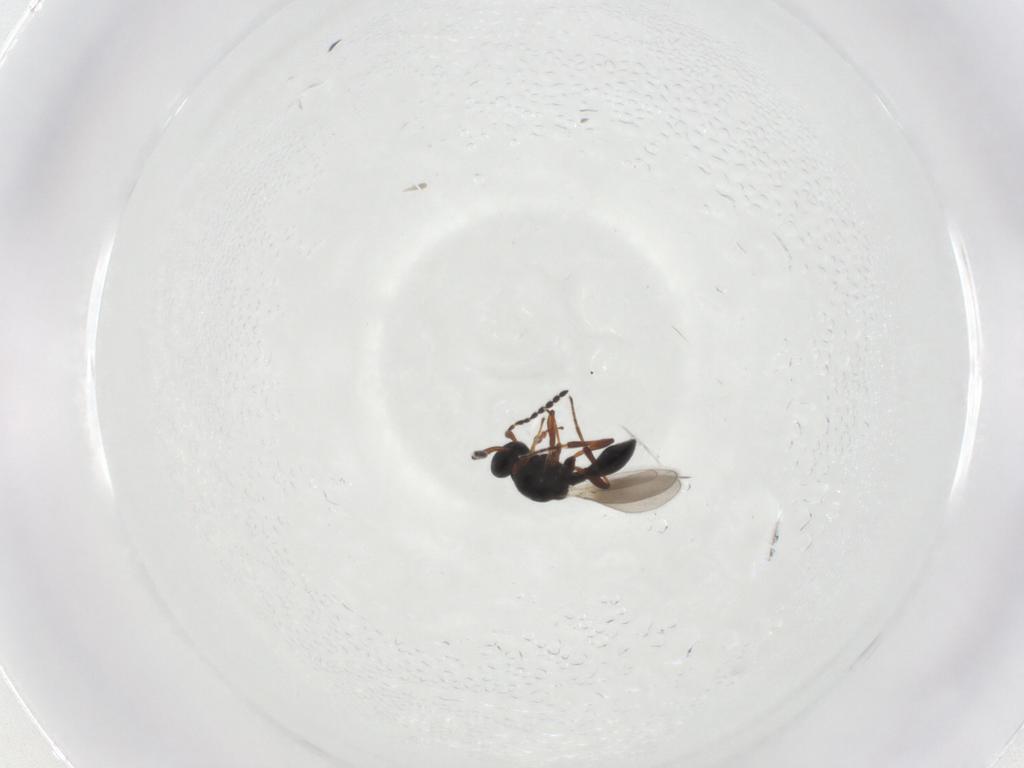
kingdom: Animalia
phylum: Arthropoda
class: Insecta
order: Hymenoptera
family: Platygastridae
